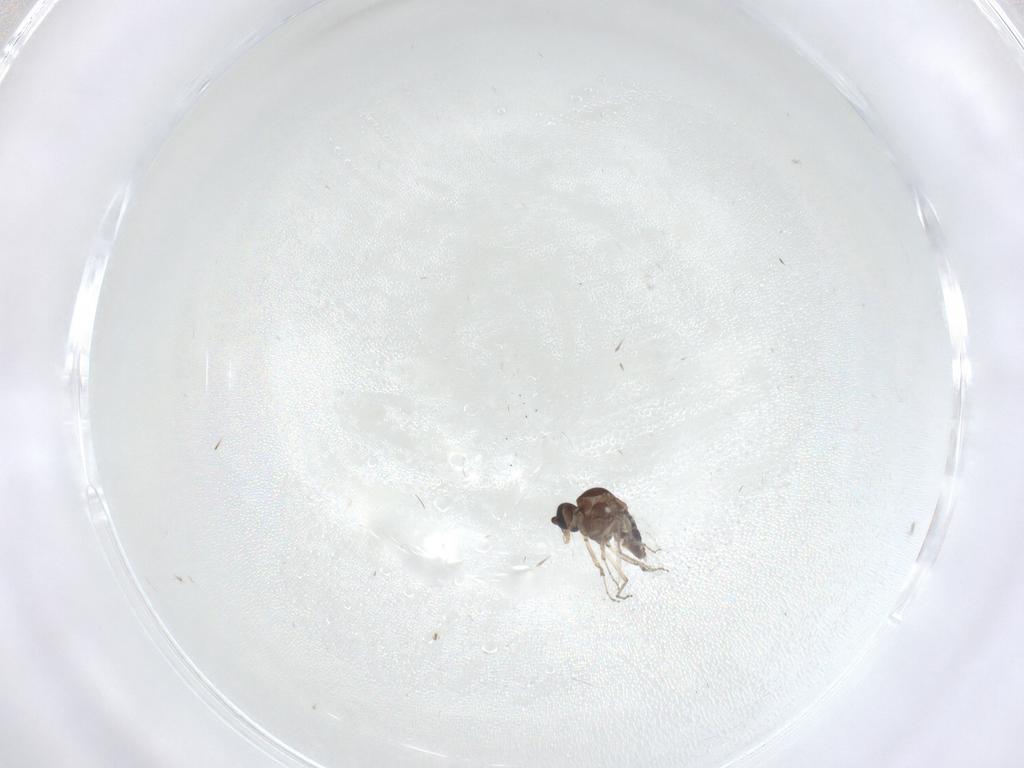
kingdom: Animalia
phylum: Arthropoda
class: Insecta
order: Diptera
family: Ceratopogonidae
